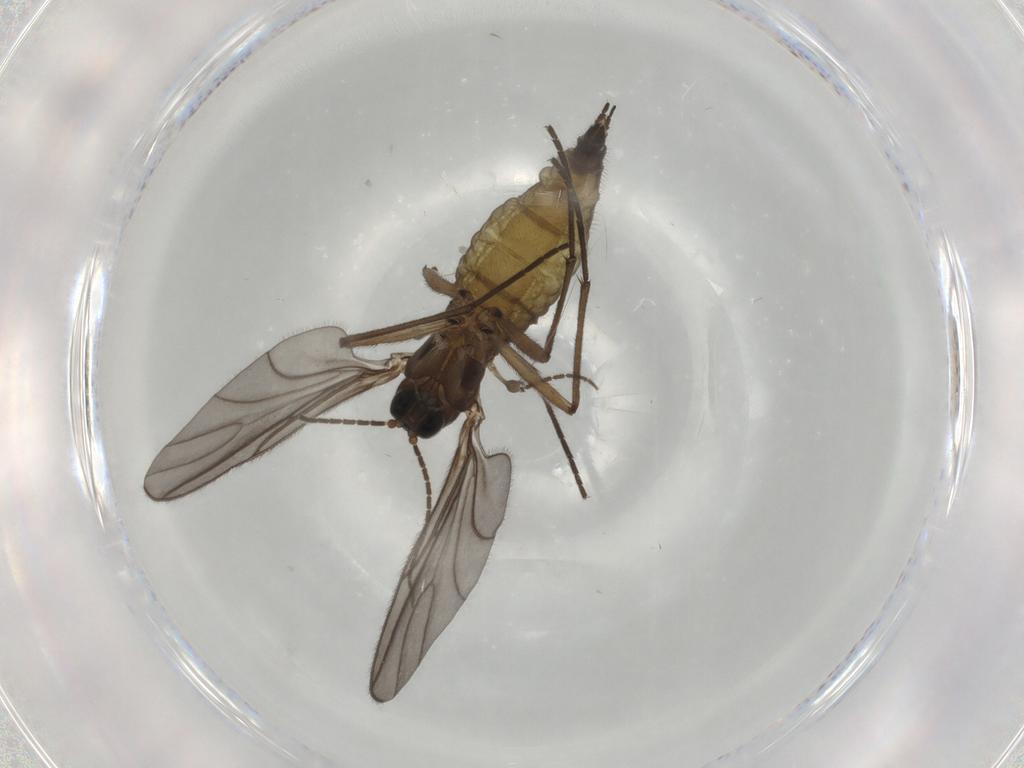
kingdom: Animalia
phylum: Arthropoda
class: Insecta
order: Diptera
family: Sciaridae
